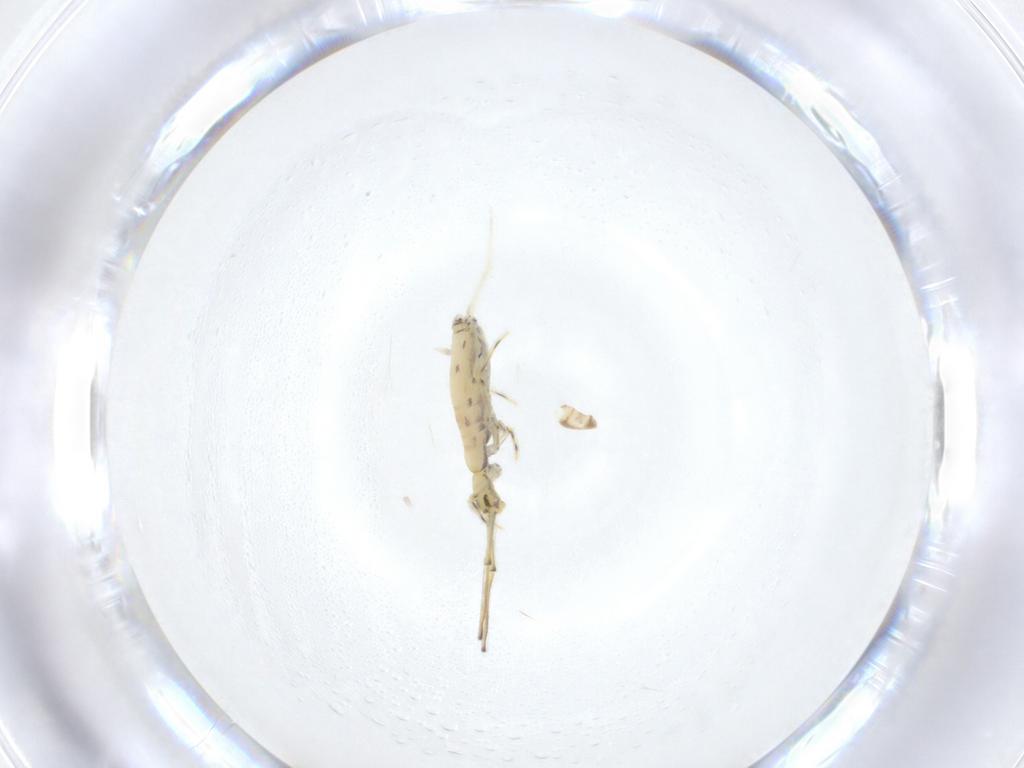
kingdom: Animalia
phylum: Arthropoda
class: Collembola
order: Entomobryomorpha
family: Paronellidae
